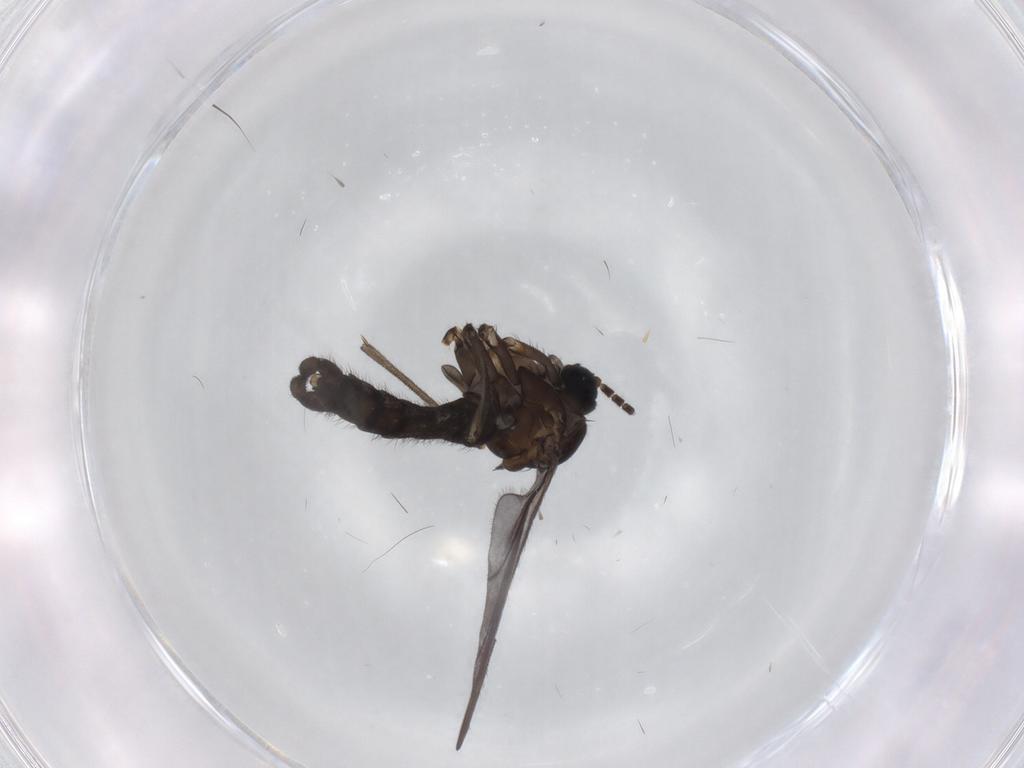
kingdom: Animalia
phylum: Arthropoda
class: Insecta
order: Diptera
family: Sciaridae
